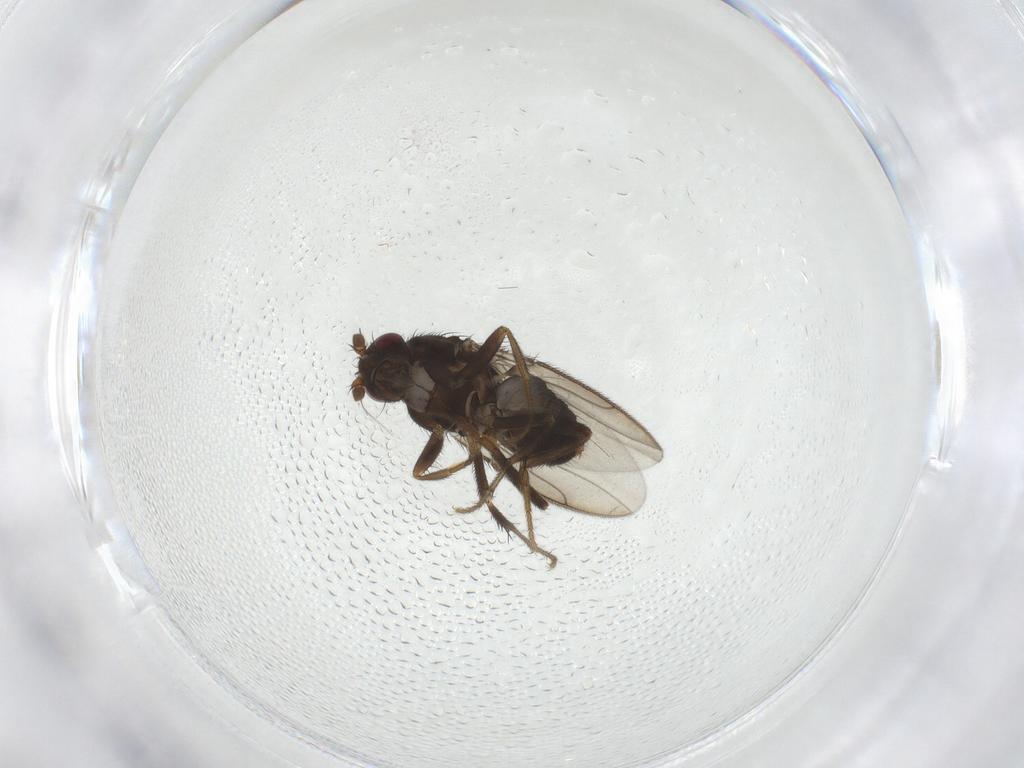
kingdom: Animalia
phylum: Arthropoda
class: Insecta
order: Diptera
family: Sphaeroceridae
